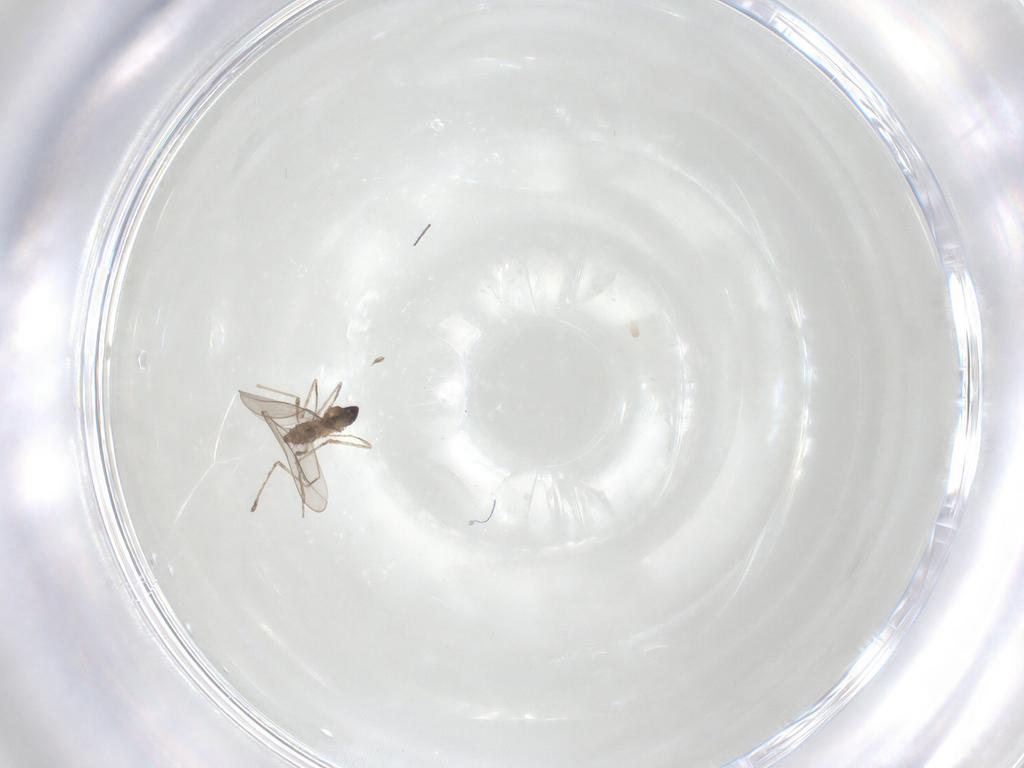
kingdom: Animalia
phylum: Arthropoda
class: Insecta
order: Diptera
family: Cecidomyiidae
